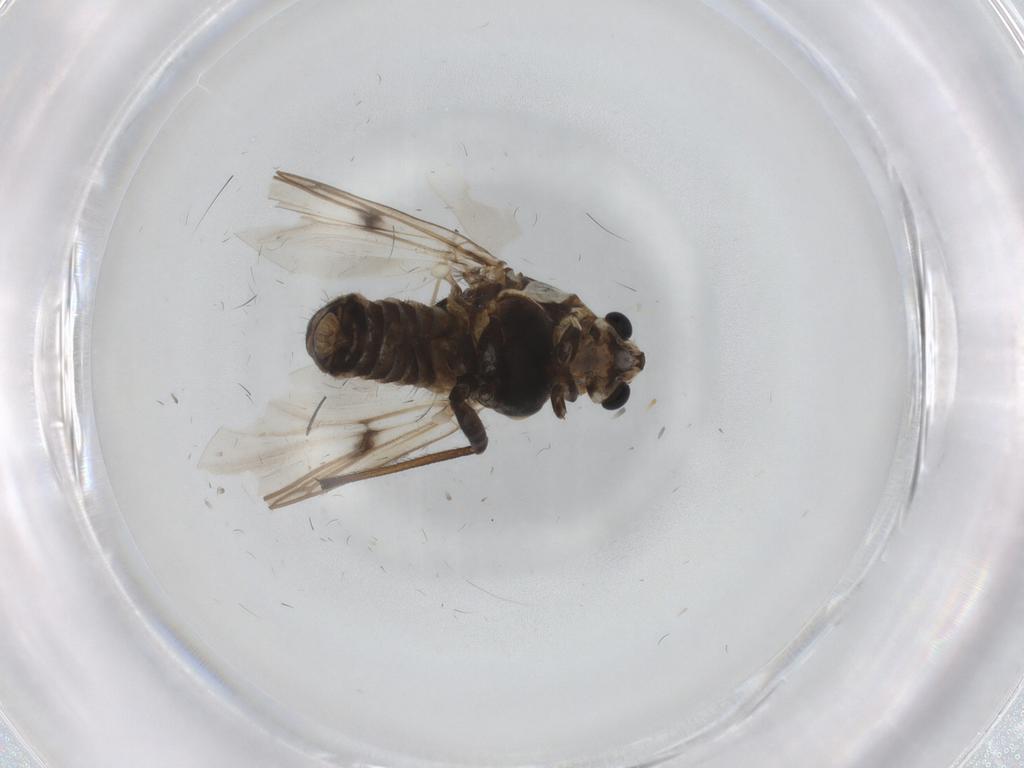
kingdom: Animalia
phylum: Arthropoda
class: Insecta
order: Diptera
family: Chironomidae
